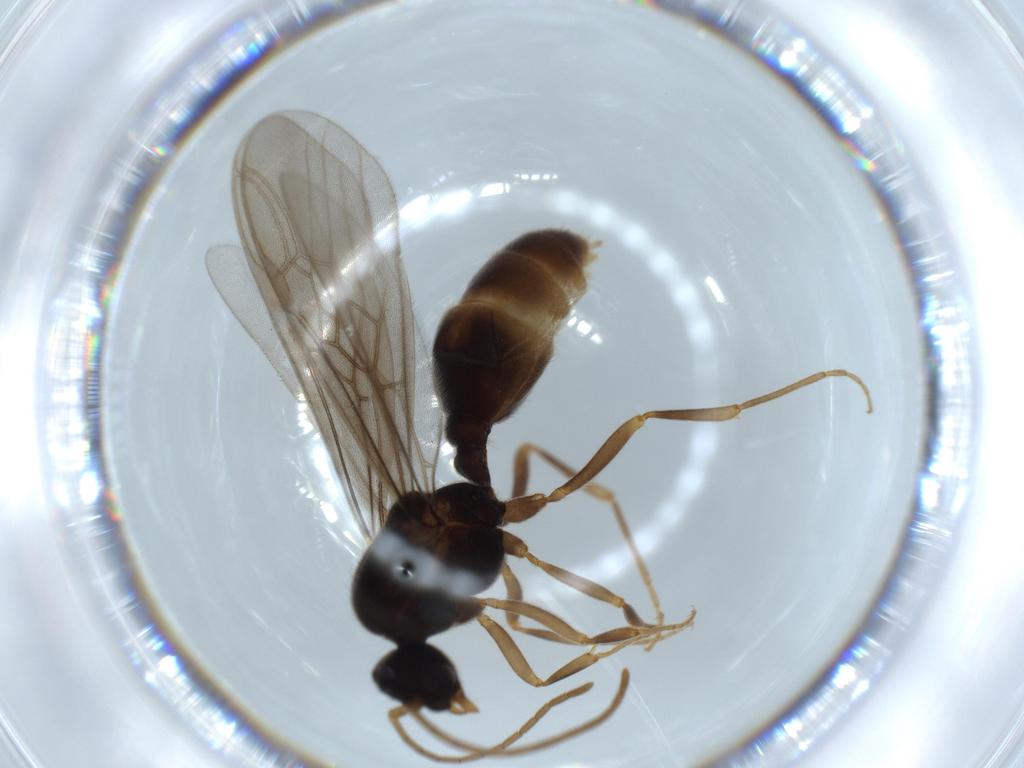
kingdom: Animalia
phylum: Arthropoda
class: Insecta
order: Hymenoptera
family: Formicidae
